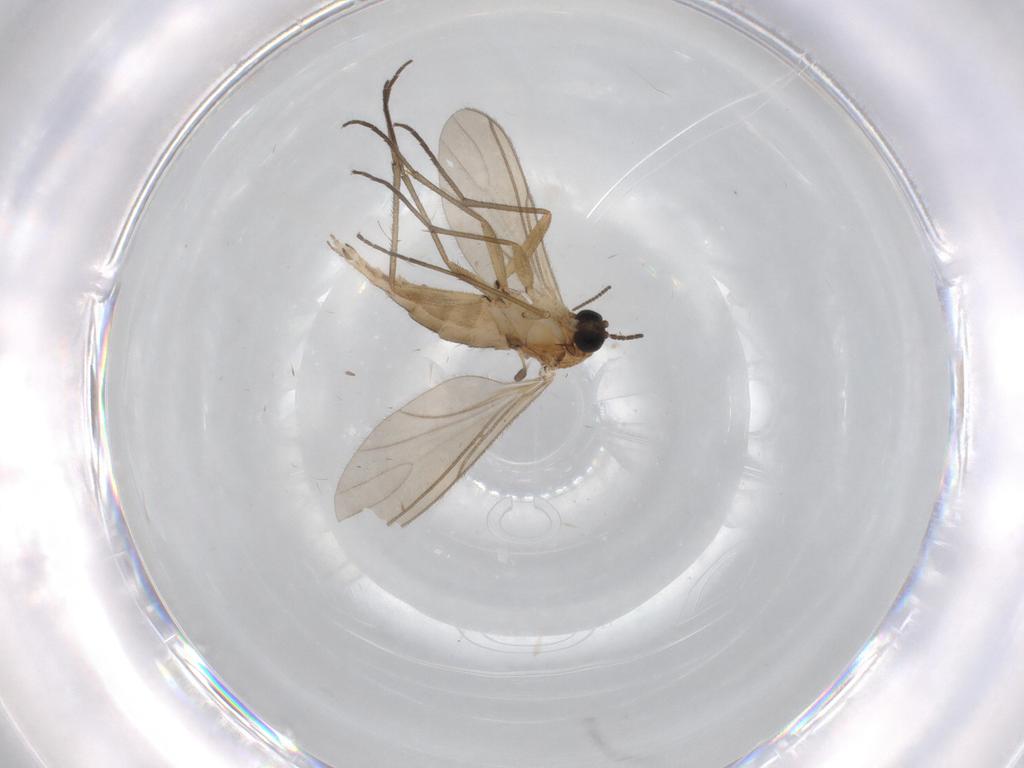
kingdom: Animalia
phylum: Arthropoda
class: Insecta
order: Diptera
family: Sciaridae
